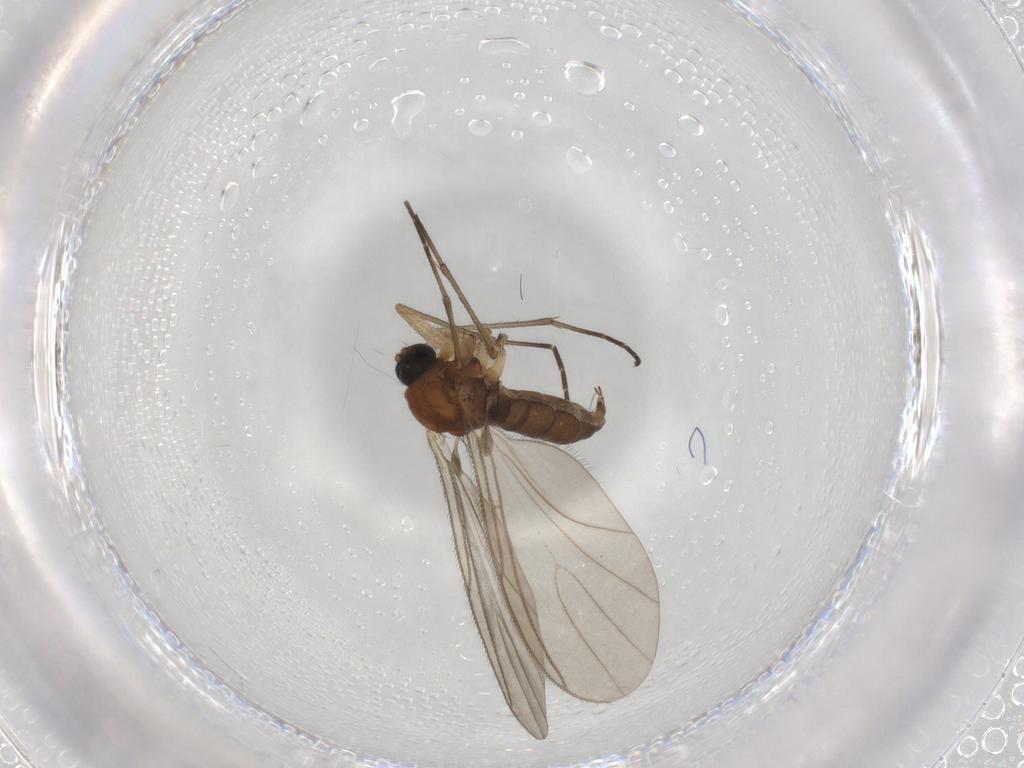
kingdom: Animalia
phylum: Arthropoda
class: Insecta
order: Diptera
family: Sciaridae
